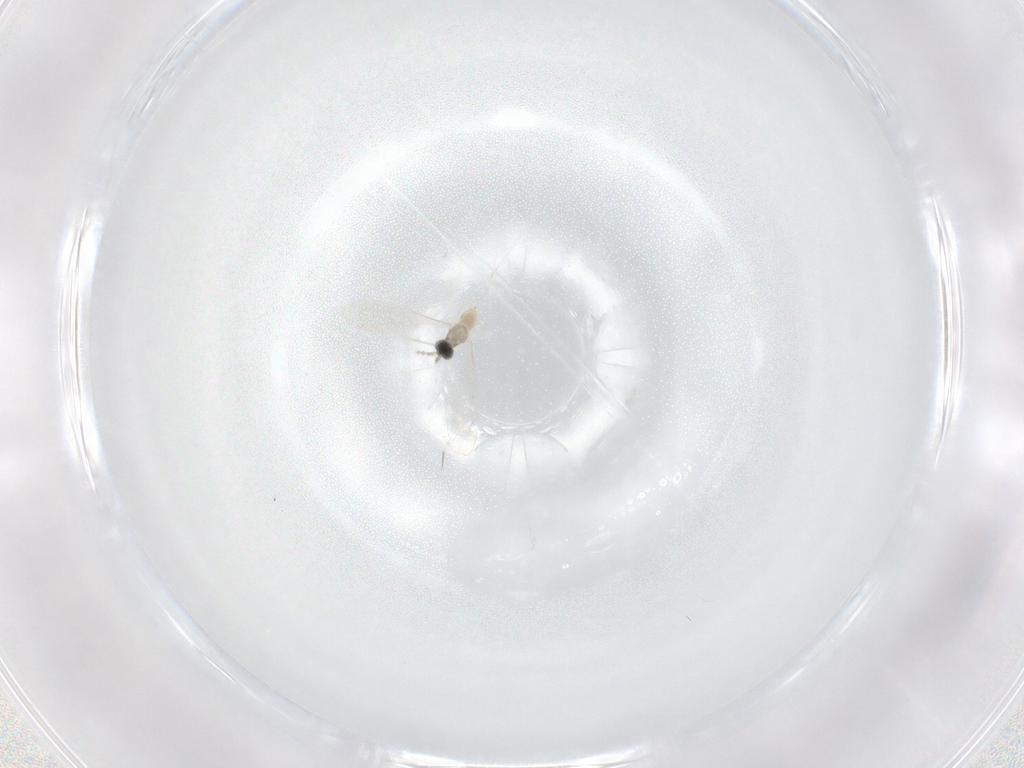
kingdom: Animalia
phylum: Arthropoda
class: Insecta
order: Diptera
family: Cecidomyiidae
